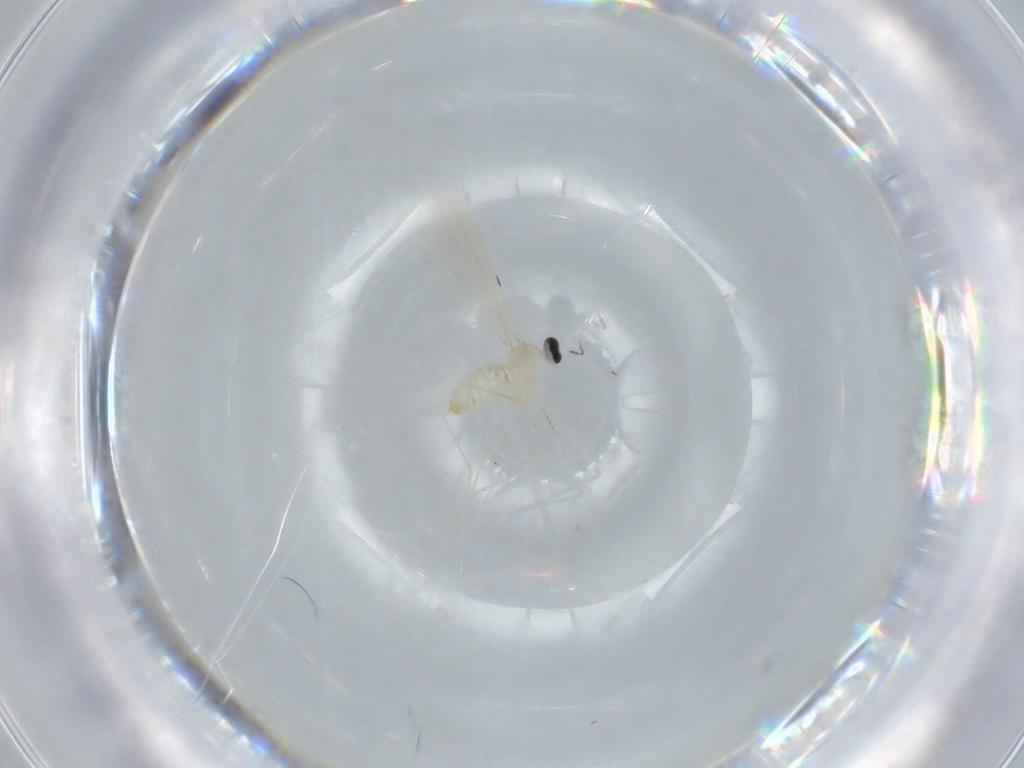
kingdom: Animalia
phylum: Arthropoda
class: Insecta
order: Diptera
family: Cecidomyiidae
